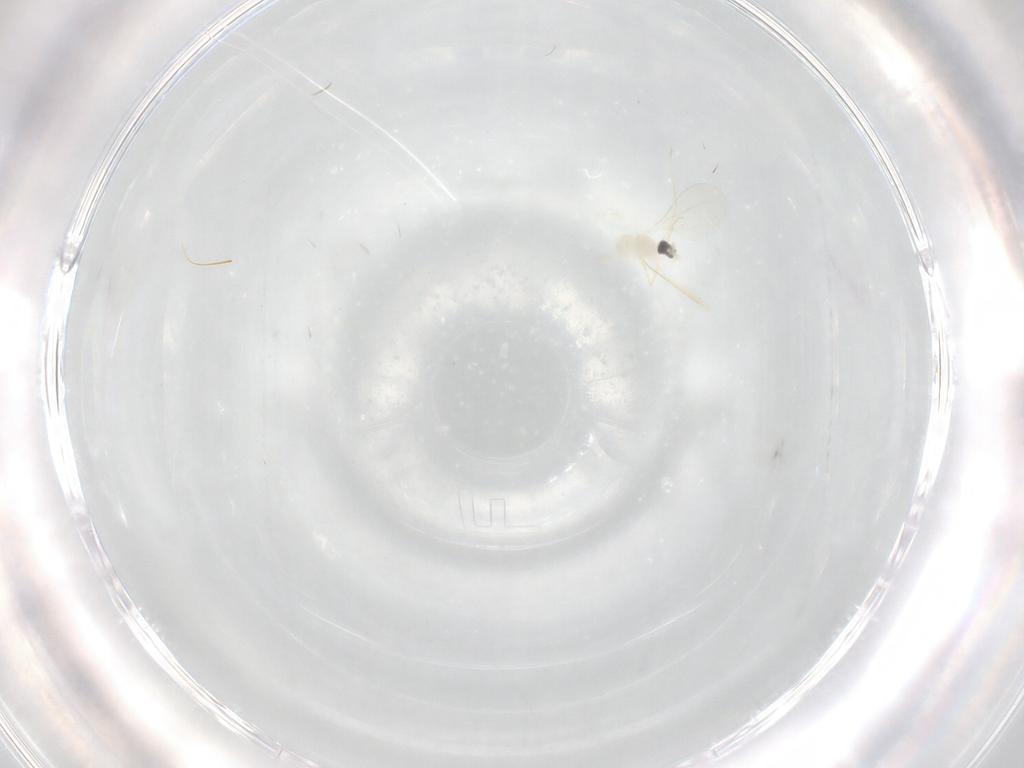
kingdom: Animalia
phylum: Arthropoda
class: Insecta
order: Diptera
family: Cecidomyiidae
